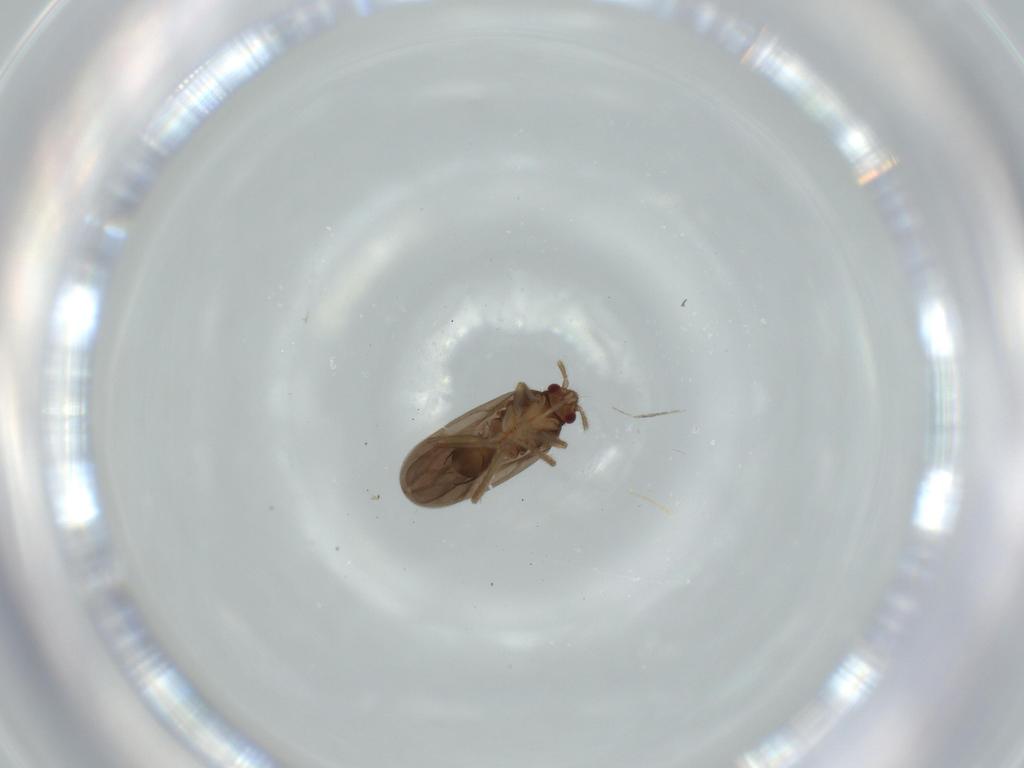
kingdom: Animalia
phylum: Arthropoda
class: Insecta
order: Hemiptera
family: Ceratocombidae
